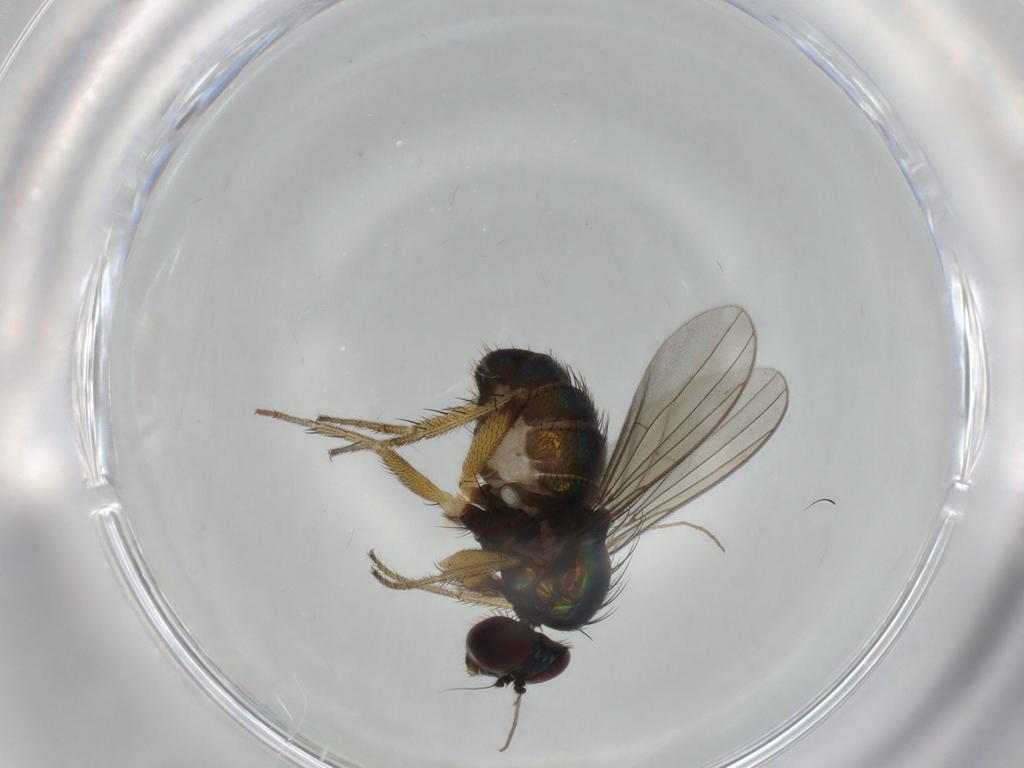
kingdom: Animalia
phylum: Arthropoda
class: Insecta
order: Diptera
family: Dolichopodidae
